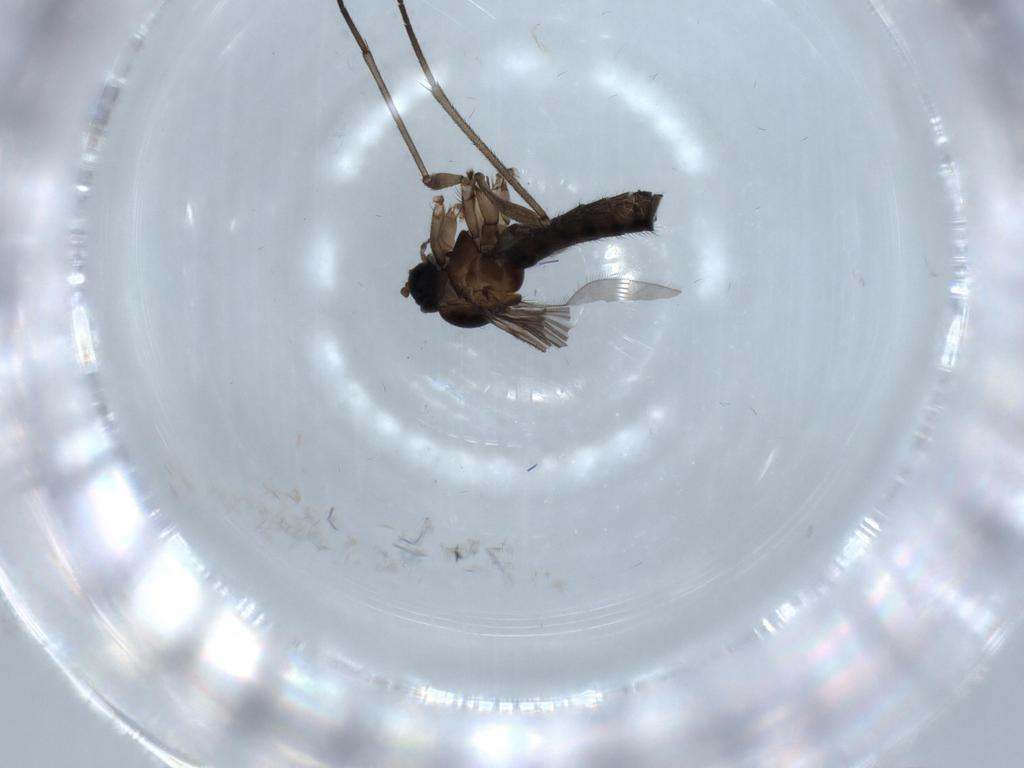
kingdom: Animalia
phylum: Arthropoda
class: Insecta
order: Diptera
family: Sciaridae
